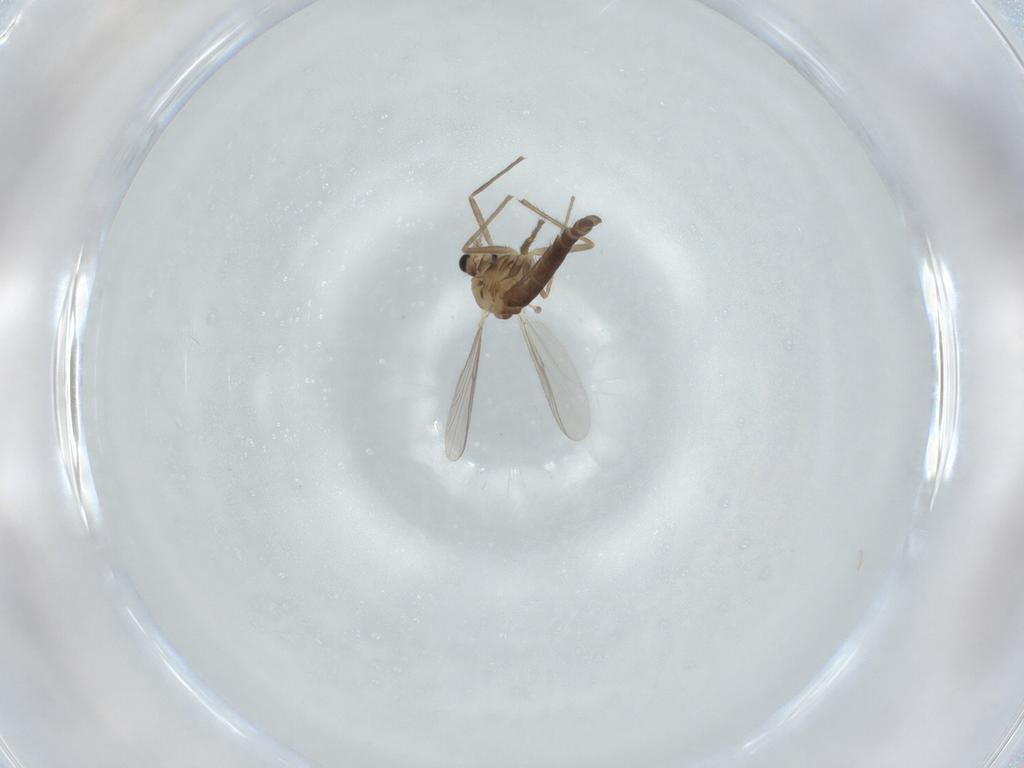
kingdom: Animalia
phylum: Arthropoda
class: Insecta
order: Diptera
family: Chironomidae
